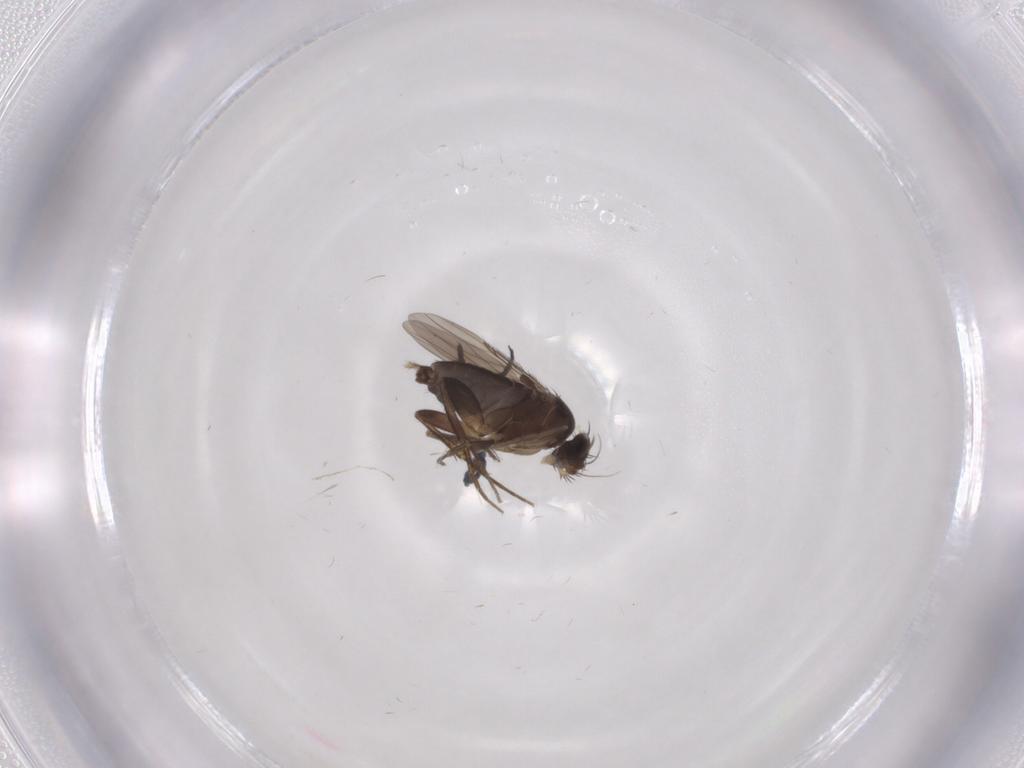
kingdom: Animalia
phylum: Arthropoda
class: Insecta
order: Diptera
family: Phoridae
